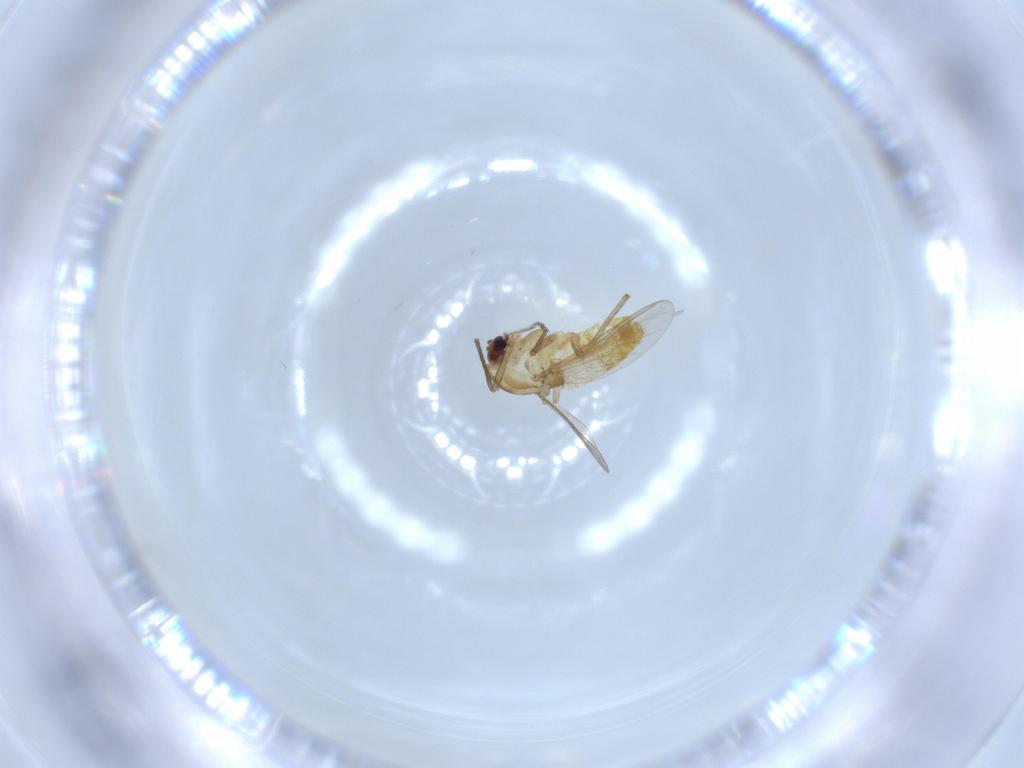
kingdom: Animalia
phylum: Arthropoda
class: Insecta
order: Diptera
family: Chironomidae
